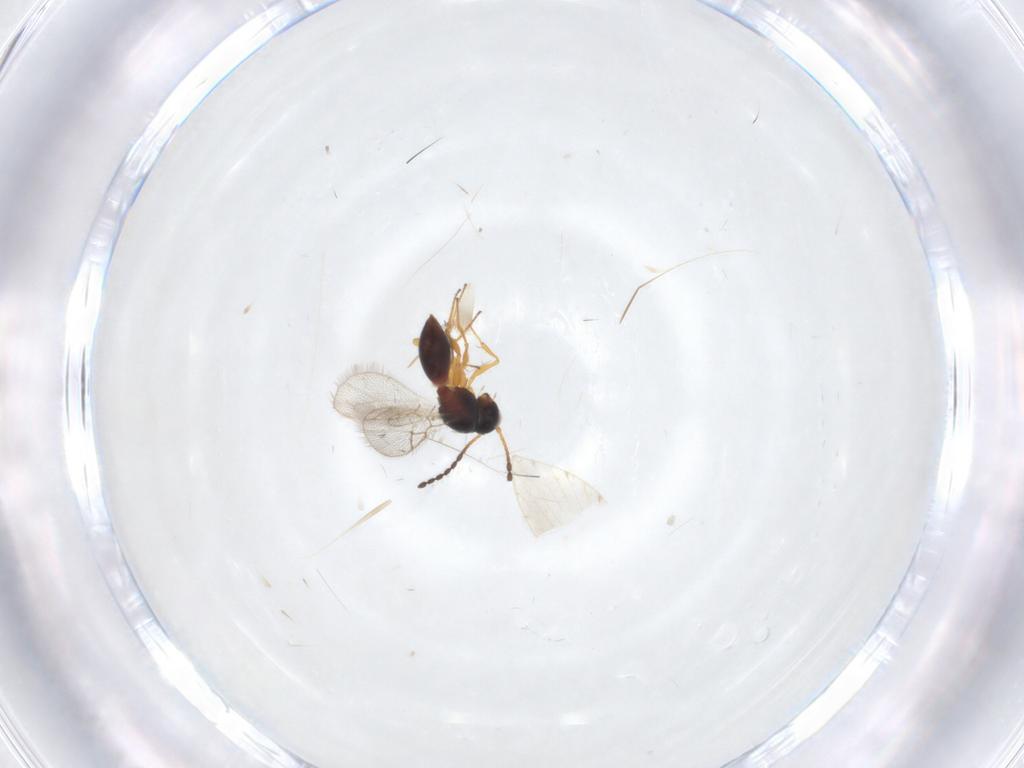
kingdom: Animalia
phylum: Arthropoda
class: Insecta
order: Hymenoptera
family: Figitidae
